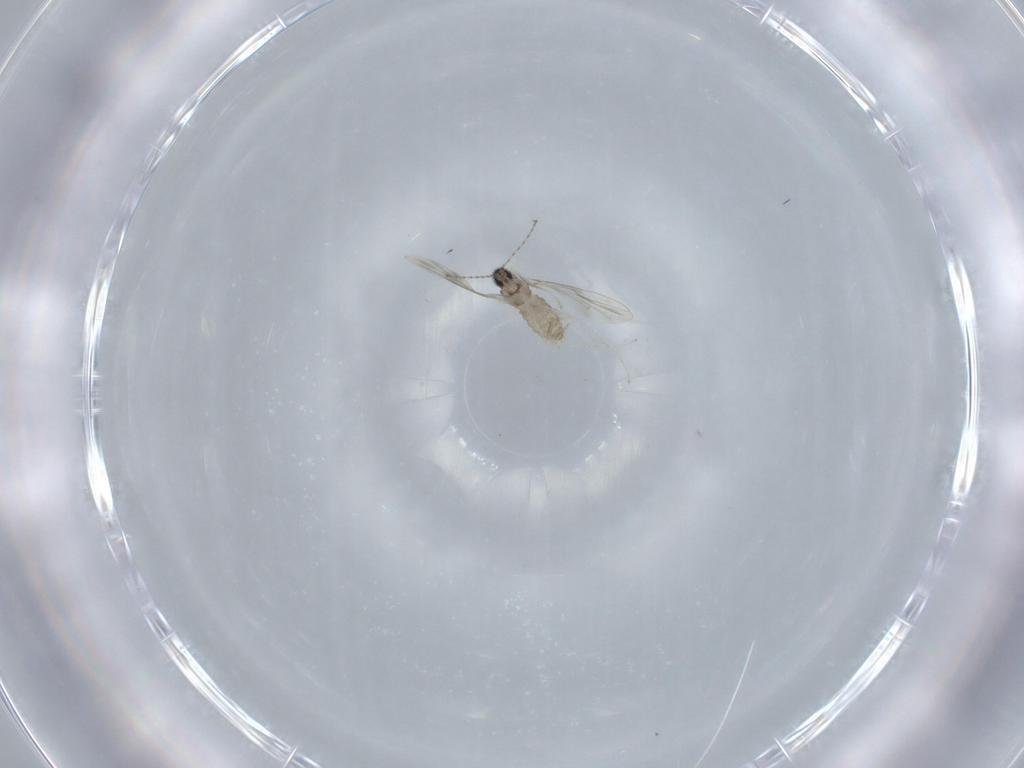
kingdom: Animalia
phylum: Arthropoda
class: Insecta
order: Diptera
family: Cecidomyiidae
